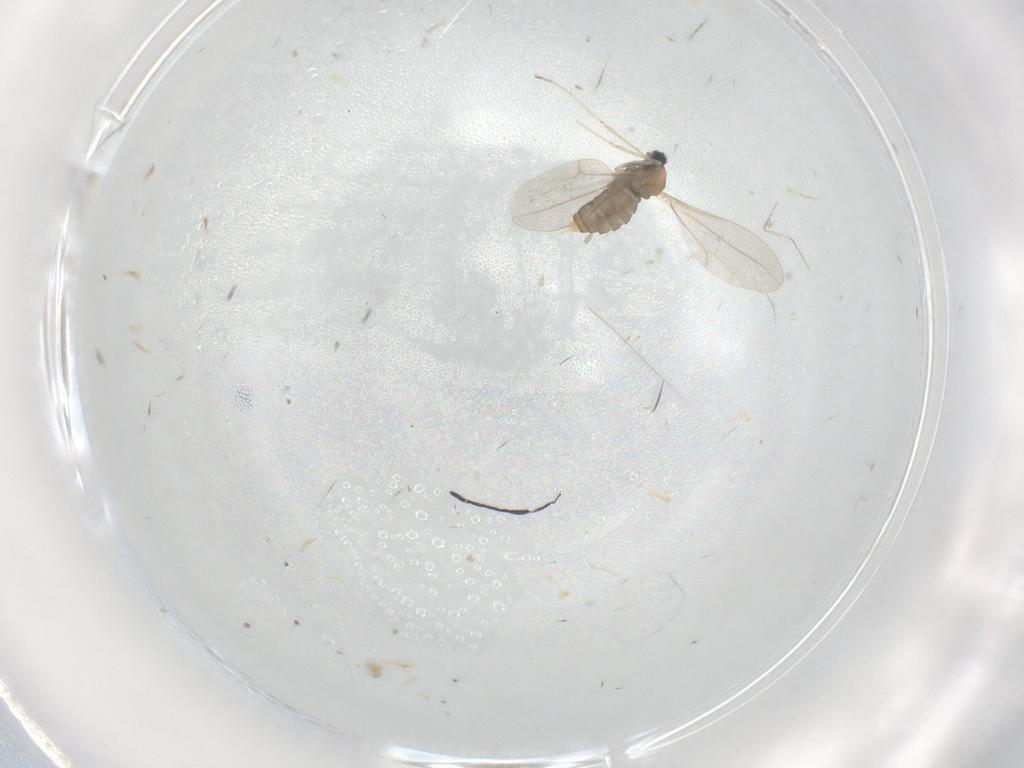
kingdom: Animalia
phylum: Arthropoda
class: Insecta
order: Diptera
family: Cecidomyiidae
